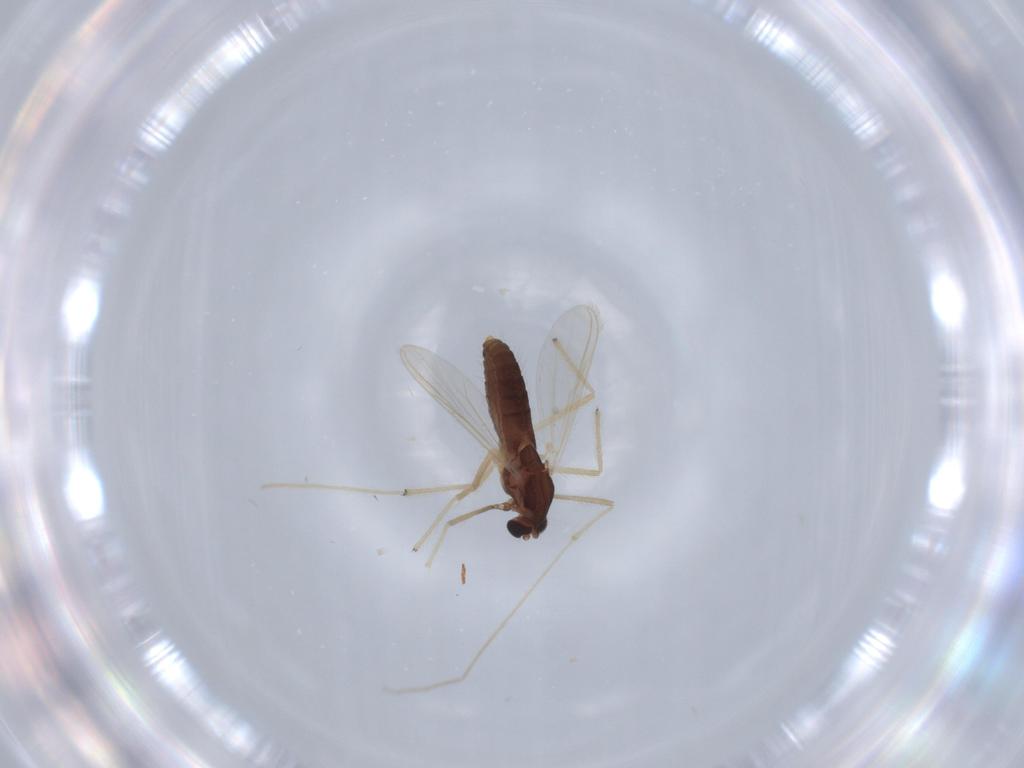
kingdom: Animalia
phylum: Arthropoda
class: Insecta
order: Diptera
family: Chironomidae
